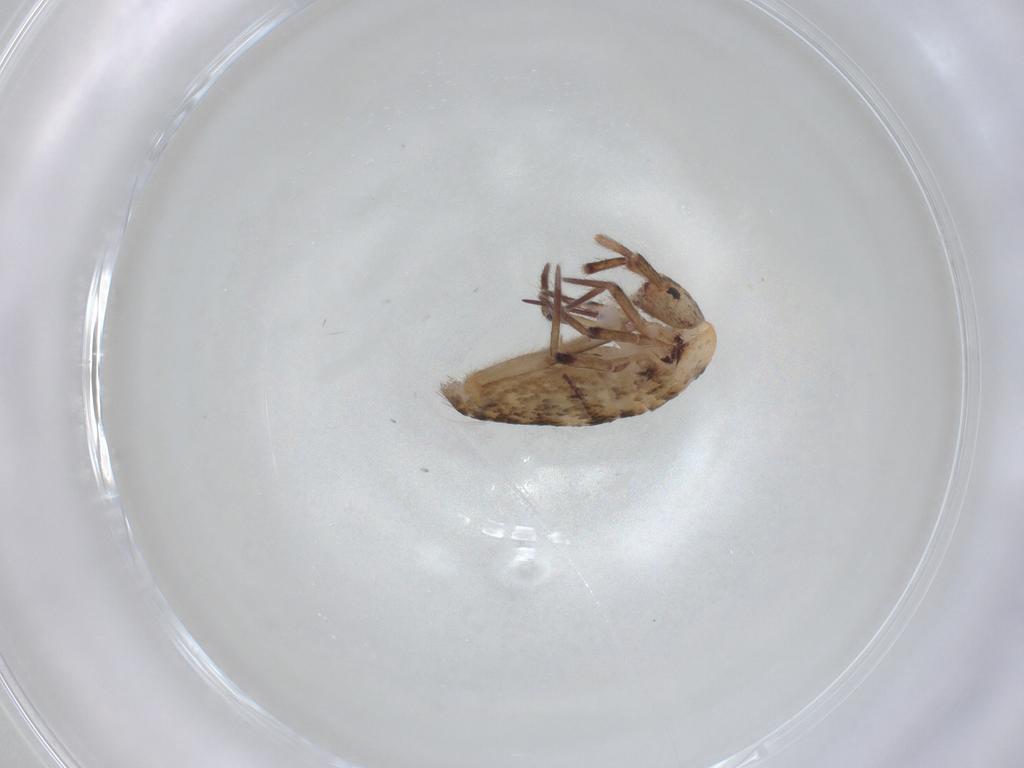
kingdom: Animalia
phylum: Arthropoda
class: Collembola
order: Entomobryomorpha
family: Entomobryidae
